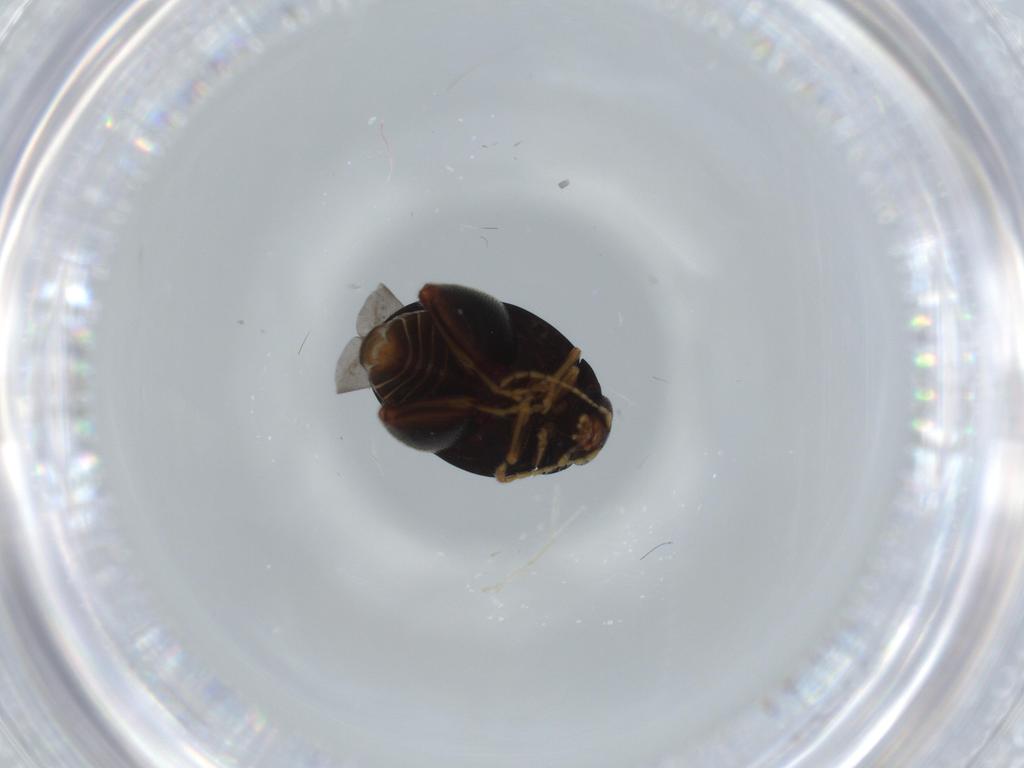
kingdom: Animalia
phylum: Arthropoda
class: Insecta
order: Coleoptera
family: Chrysomelidae
